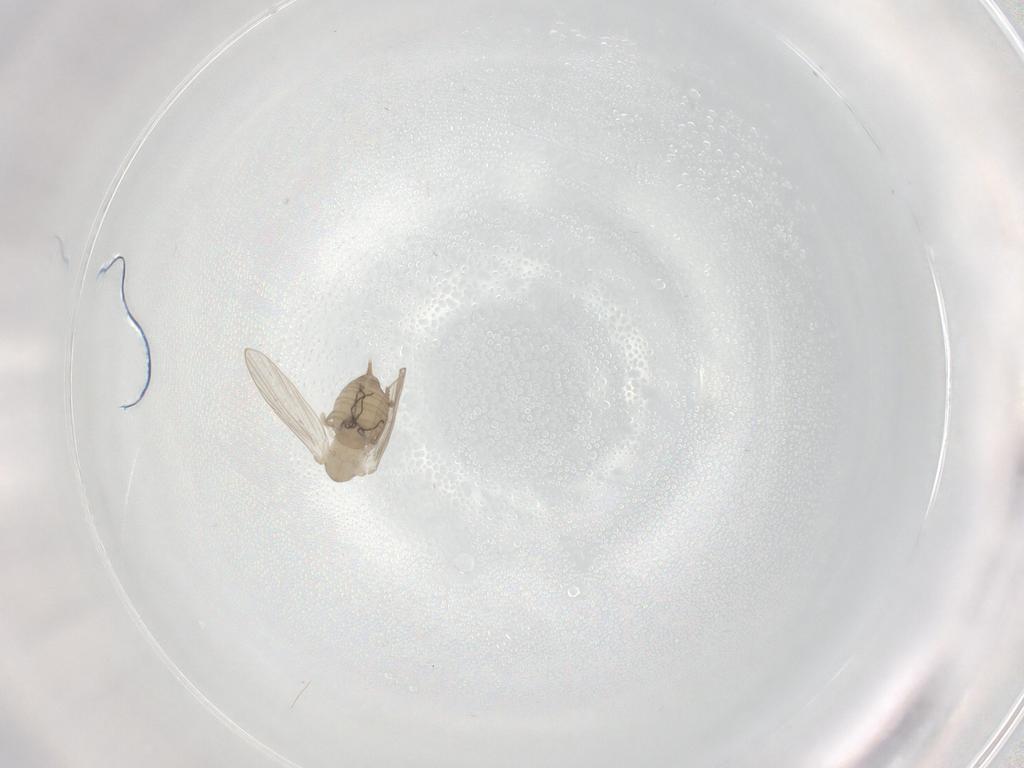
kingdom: Animalia
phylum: Arthropoda
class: Insecta
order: Diptera
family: Psychodidae
